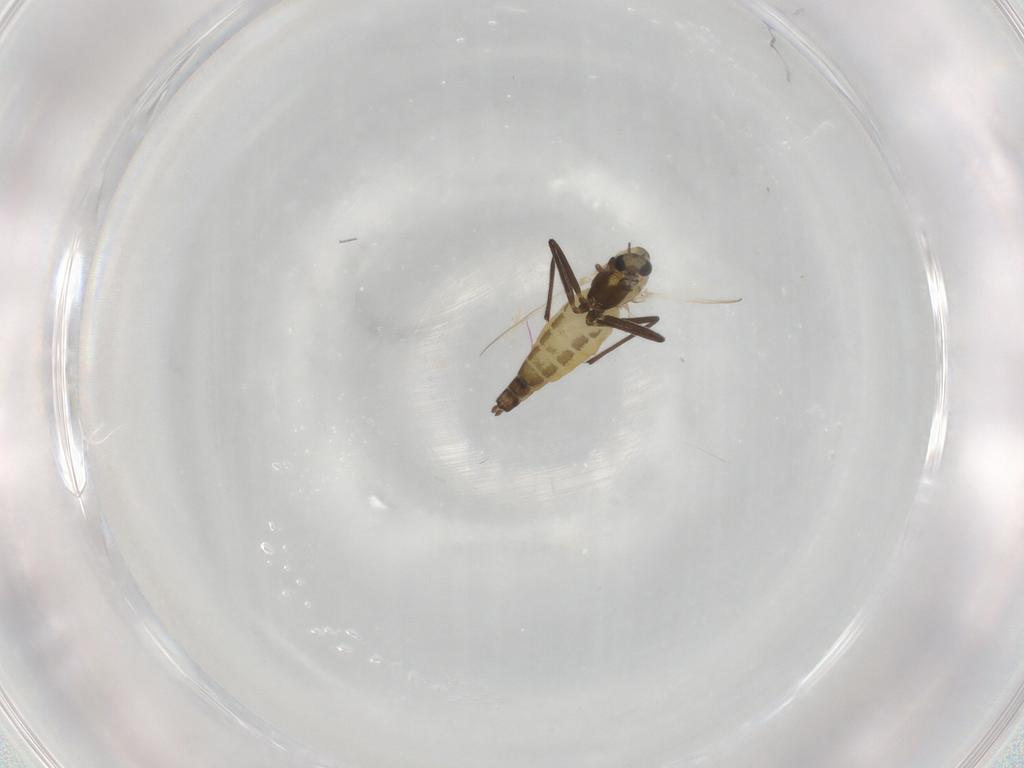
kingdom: Animalia
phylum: Arthropoda
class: Insecta
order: Diptera
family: Chironomidae
